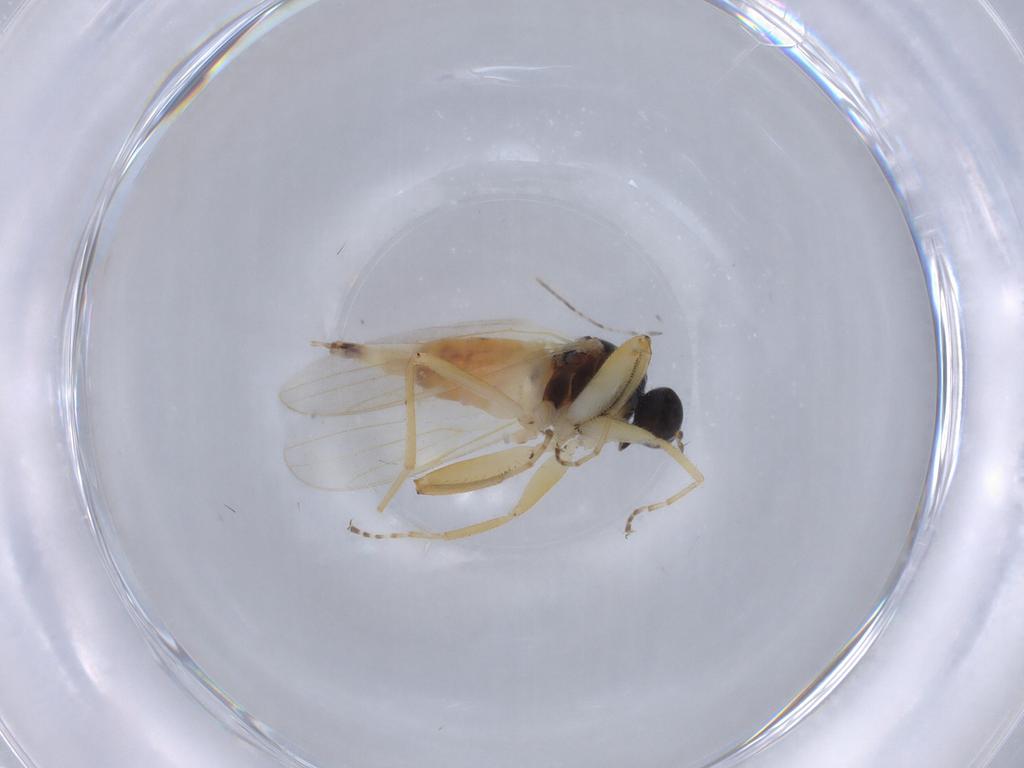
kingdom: Animalia
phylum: Arthropoda
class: Insecta
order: Diptera
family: Hybotidae
